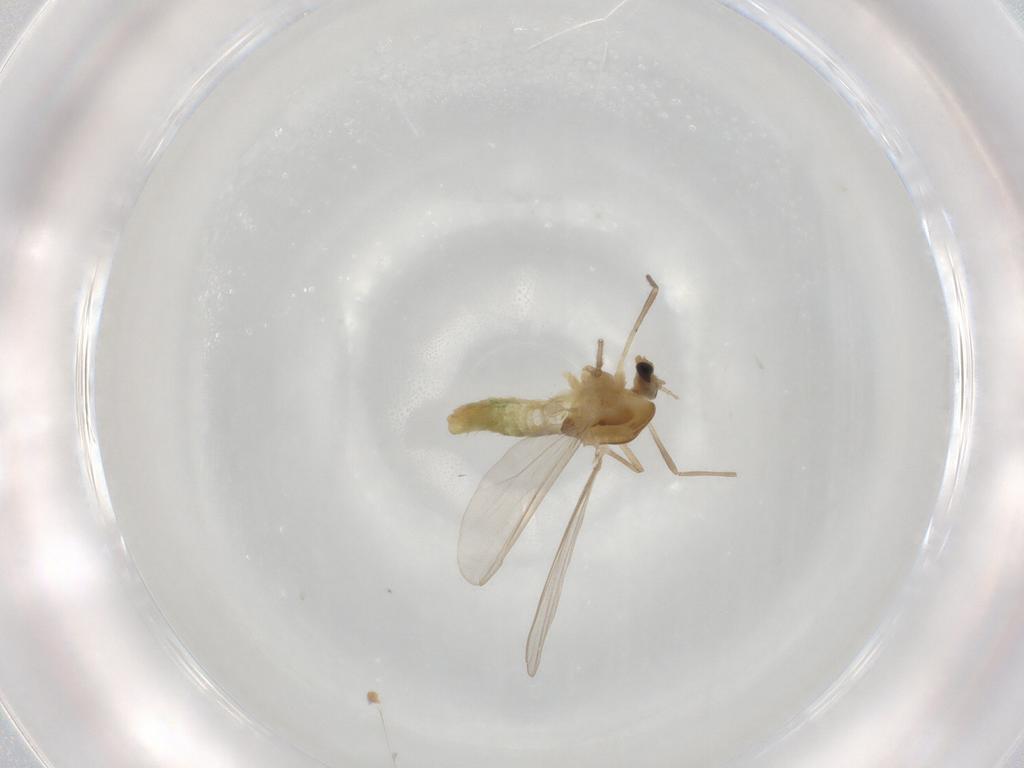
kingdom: Animalia
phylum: Arthropoda
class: Insecta
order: Diptera
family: Chironomidae
